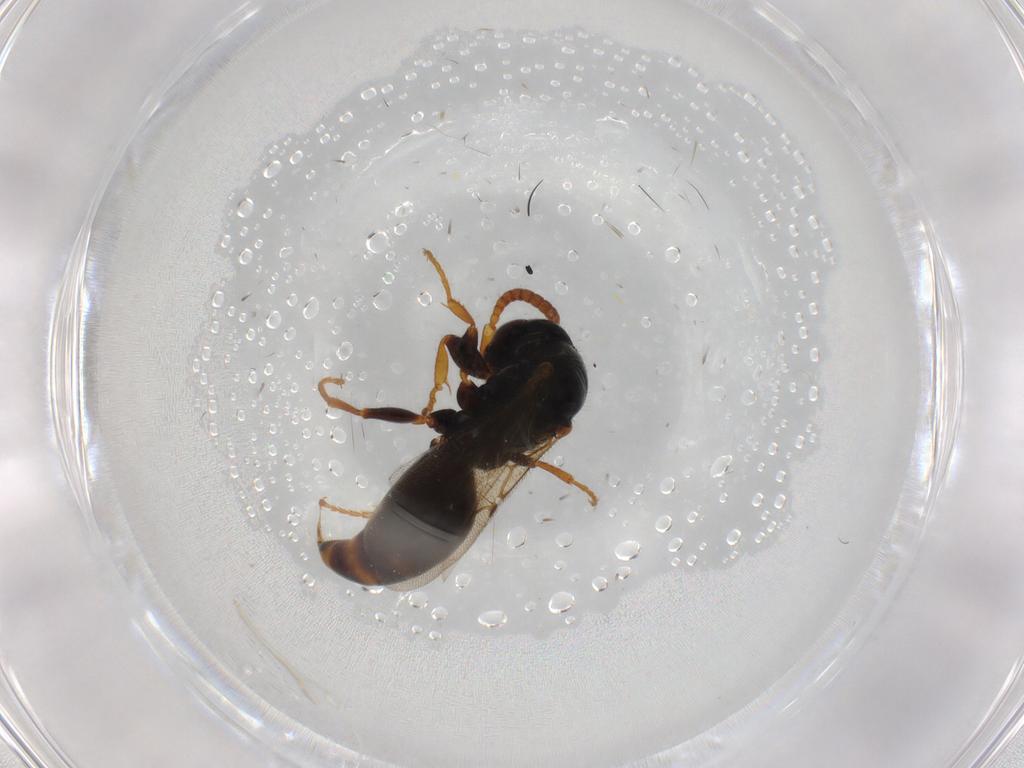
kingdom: Animalia
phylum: Arthropoda
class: Insecta
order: Hymenoptera
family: Bethylidae
